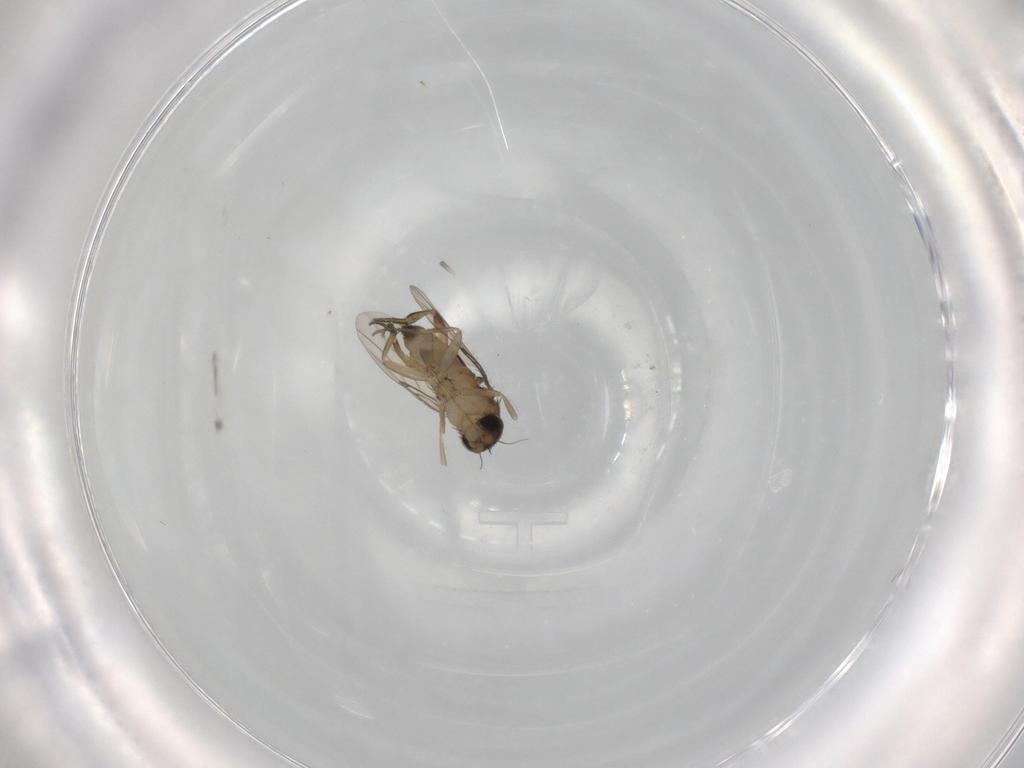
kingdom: Animalia
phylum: Arthropoda
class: Insecta
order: Diptera
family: Phoridae
